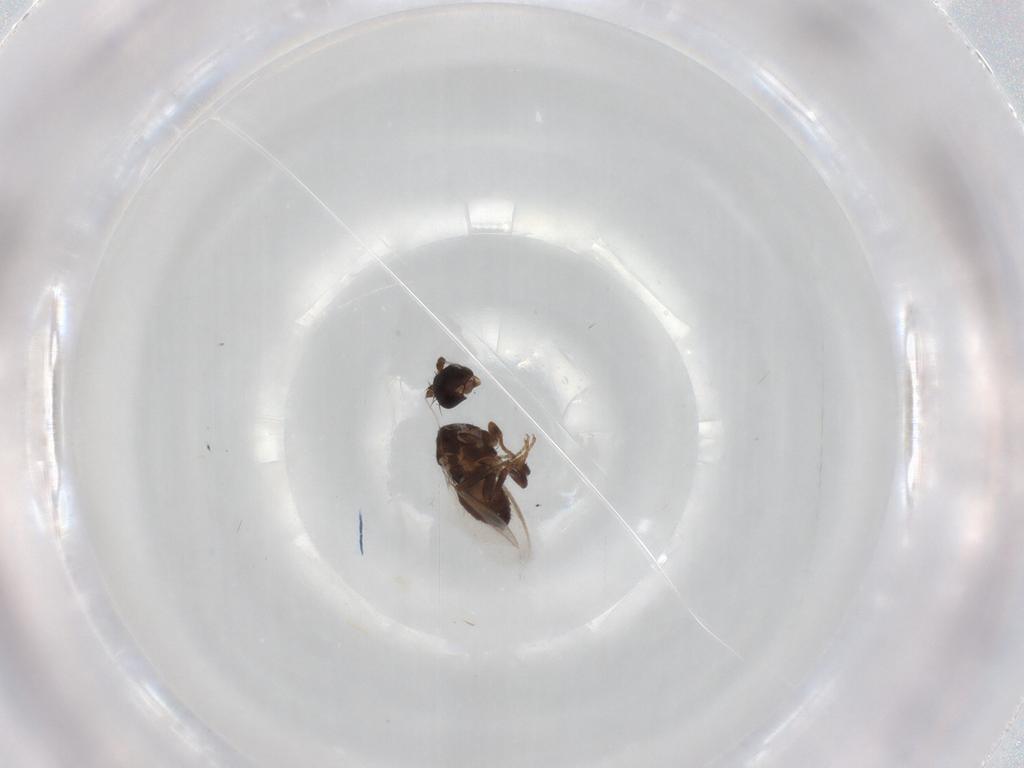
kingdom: Animalia
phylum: Arthropoda
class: Insecta
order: Diptera
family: Sphaeroceridae
